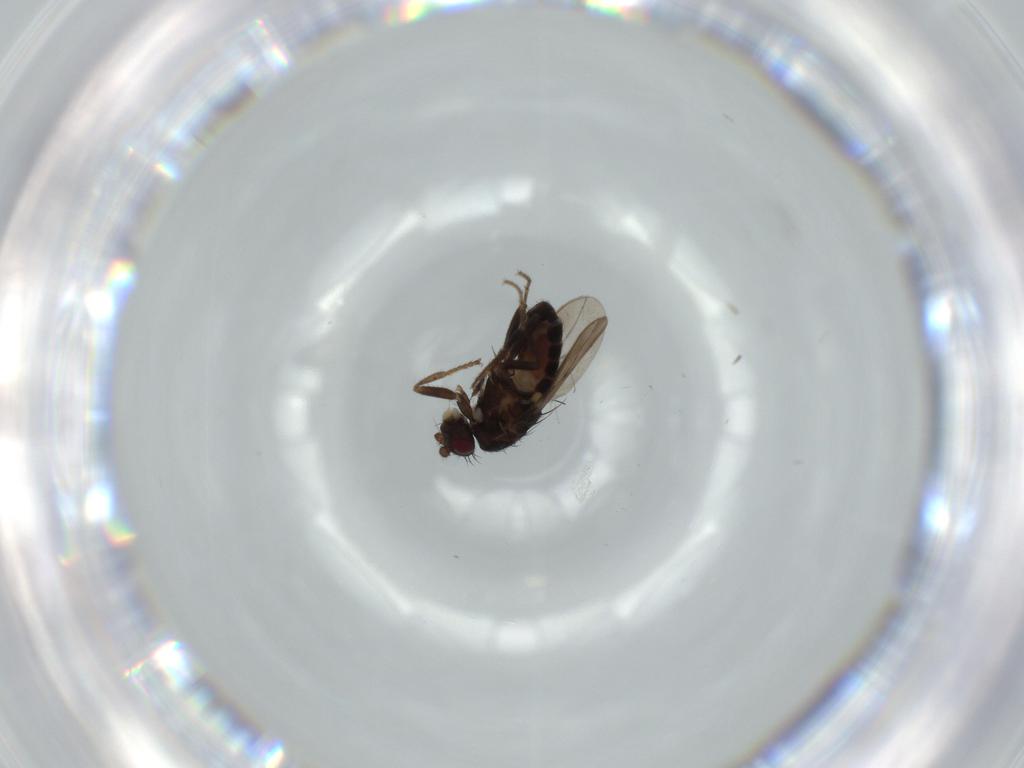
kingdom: Animalia
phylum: Arthropoda
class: Insecta
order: Diptera
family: Sphaeroceridae
